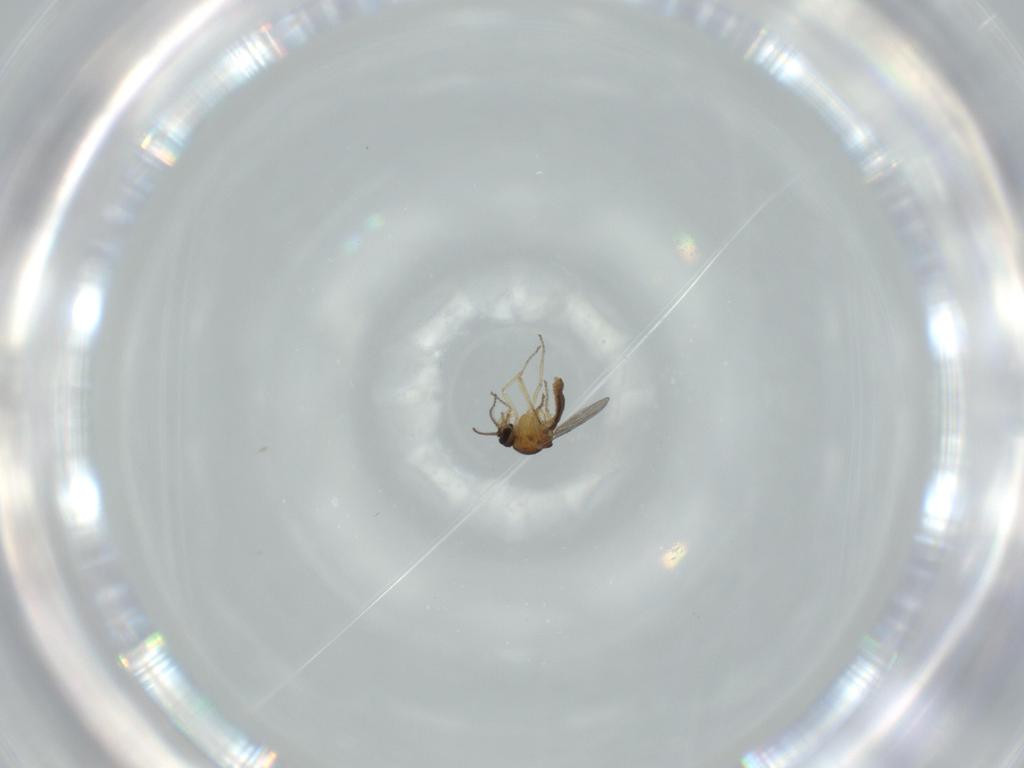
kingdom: Animalia
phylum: Arthropoda
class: Insecta
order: Diptera
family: Ceratopogonidae
